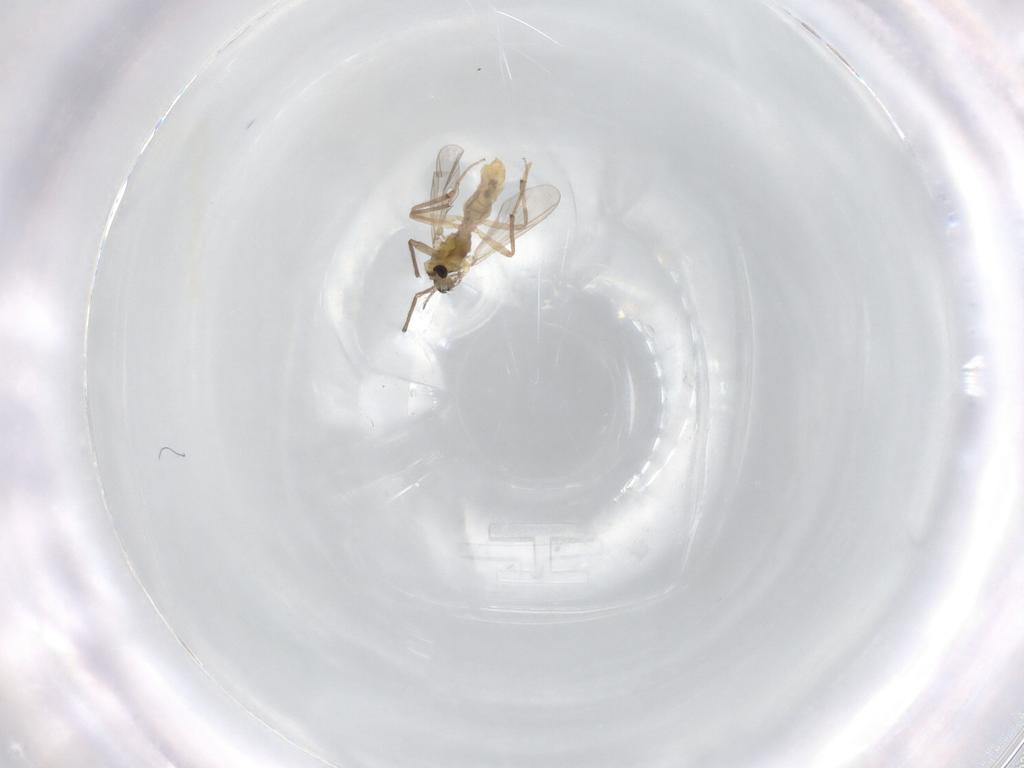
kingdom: Animalia
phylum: Arthropoda
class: Insecta
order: Diptera
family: Chironomidae
